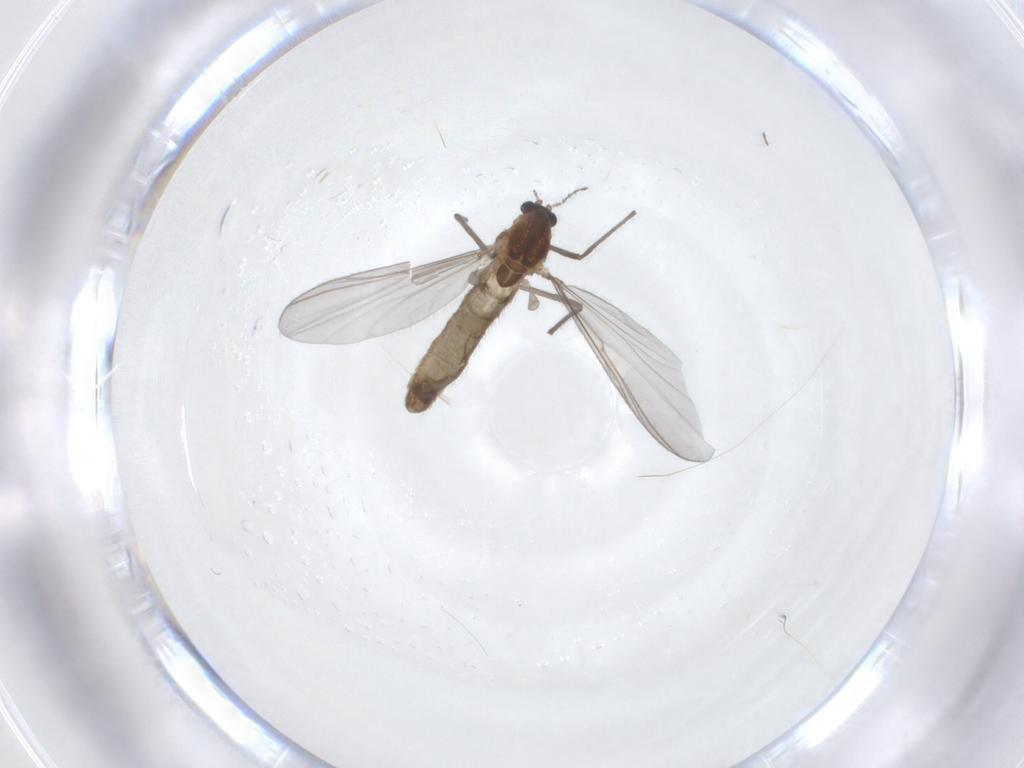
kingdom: Animalia
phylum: Arthropoda
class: Insecta
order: Diptera
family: Chironomidae
